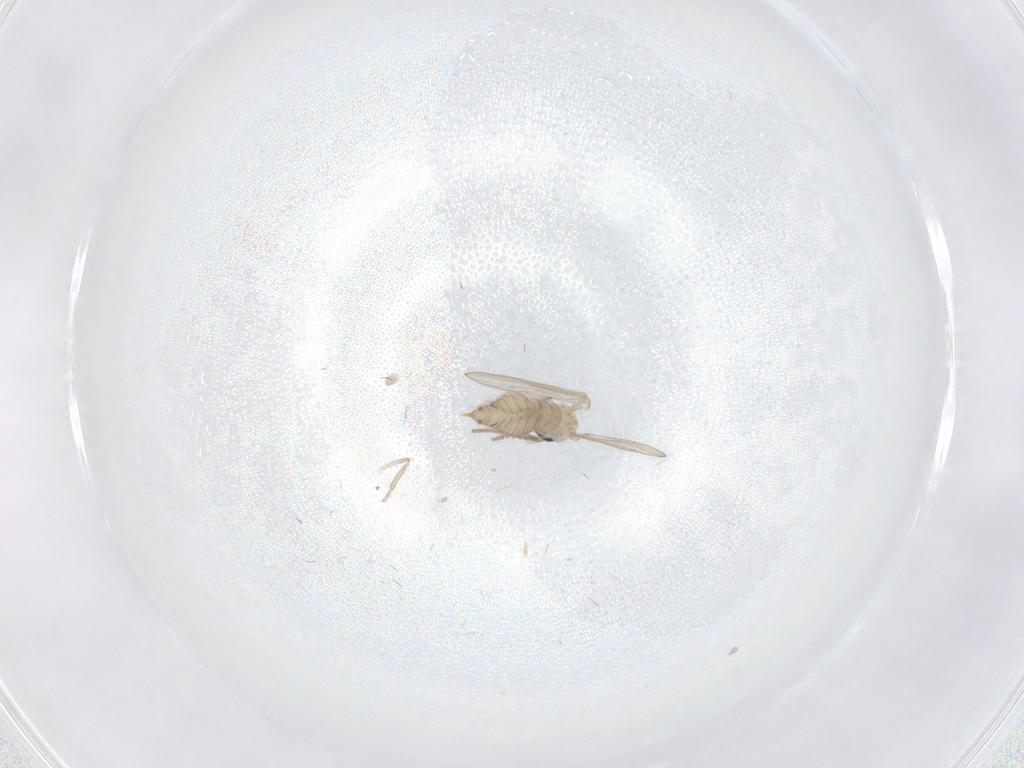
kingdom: Animalia
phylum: Arthropoda
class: Insecta
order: Diptera
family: Psychodidae
